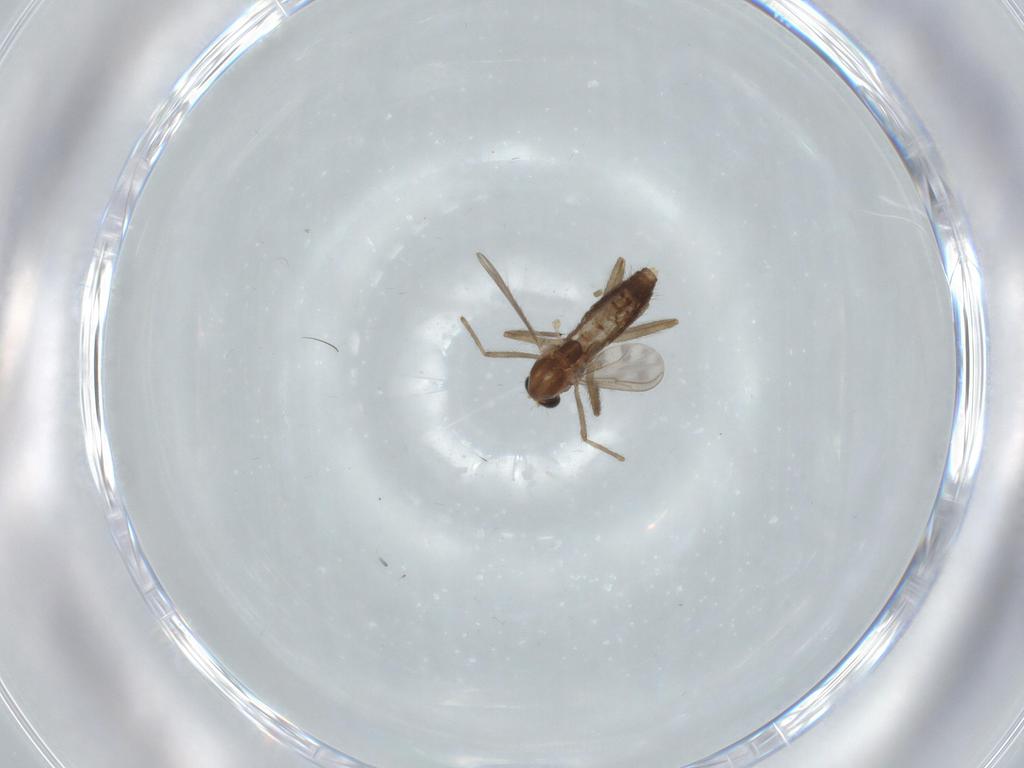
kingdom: Animalia
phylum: Arthropoda
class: Insecta
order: Diptera
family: Chironomidae
